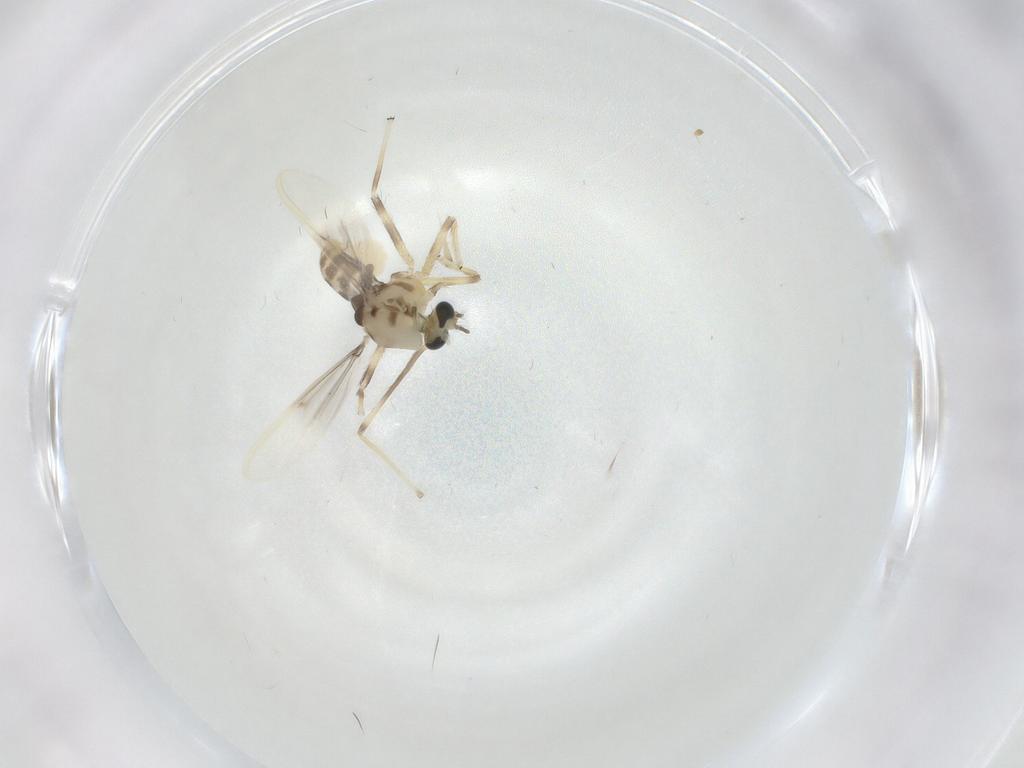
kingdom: Animalia
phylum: Arthropoda
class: Insecta
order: Diptera
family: Chironomidae
